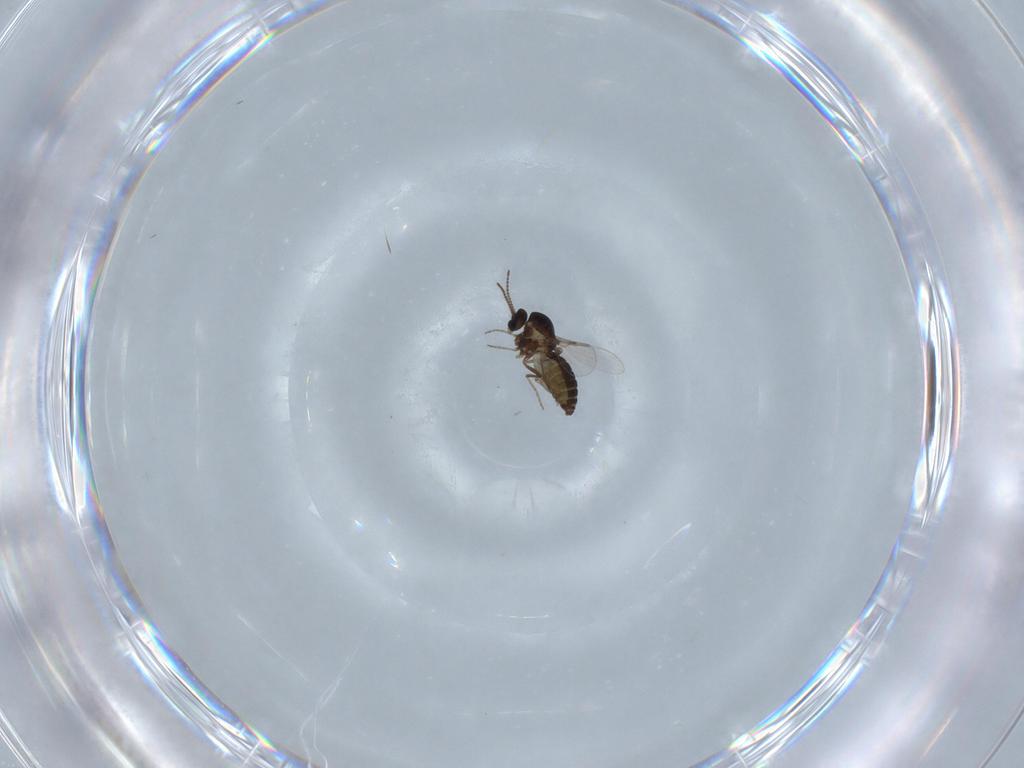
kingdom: Animalia
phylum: Arthropoda
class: Insecta
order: Diptera
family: Ceratopogonidae
